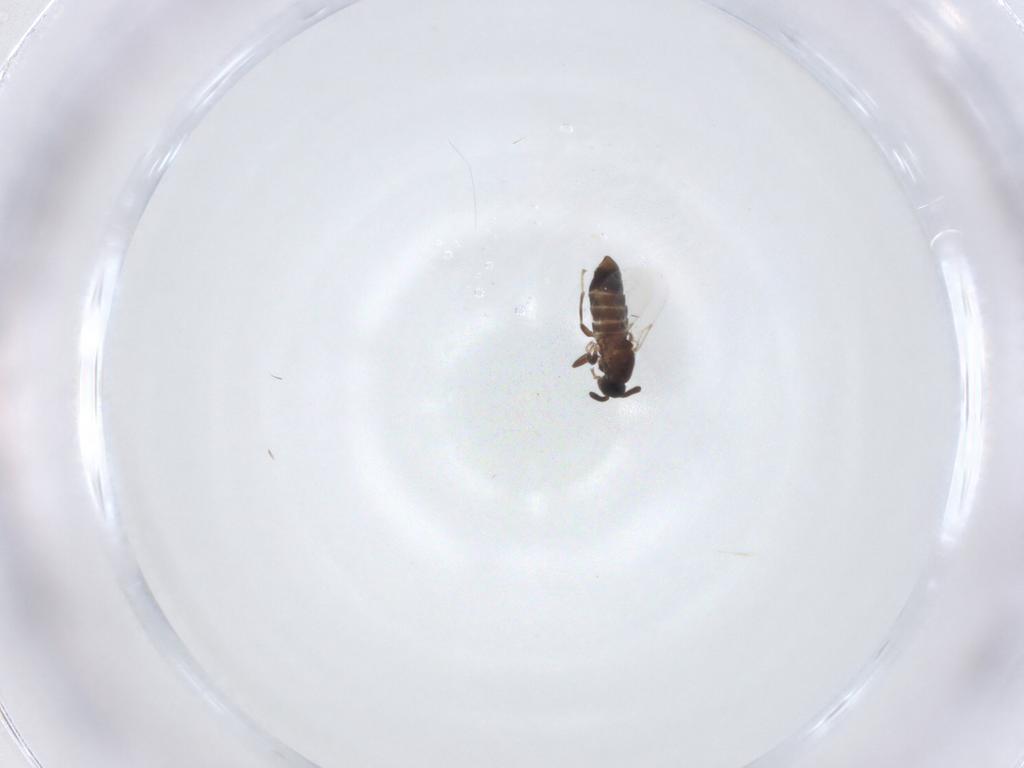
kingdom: Animalia
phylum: Arthropoda
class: Insecta
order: Diptera
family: Scatopsidae
